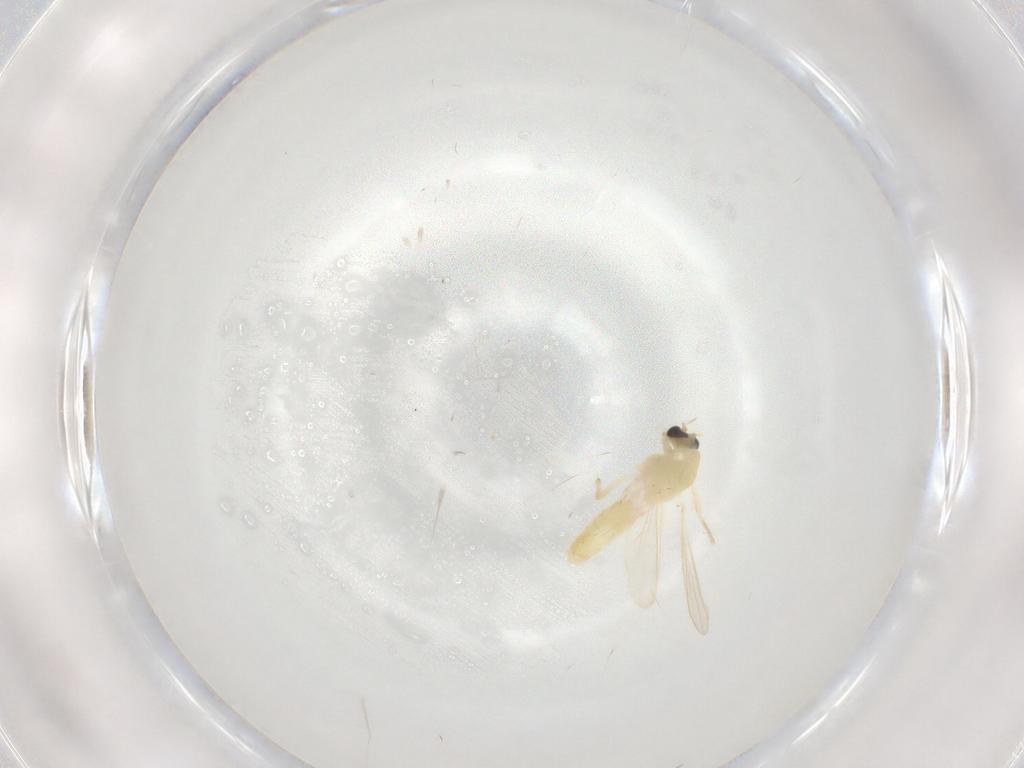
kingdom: Animalia
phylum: Arthropoda
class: Insecta
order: Diptera
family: Chironomidae
